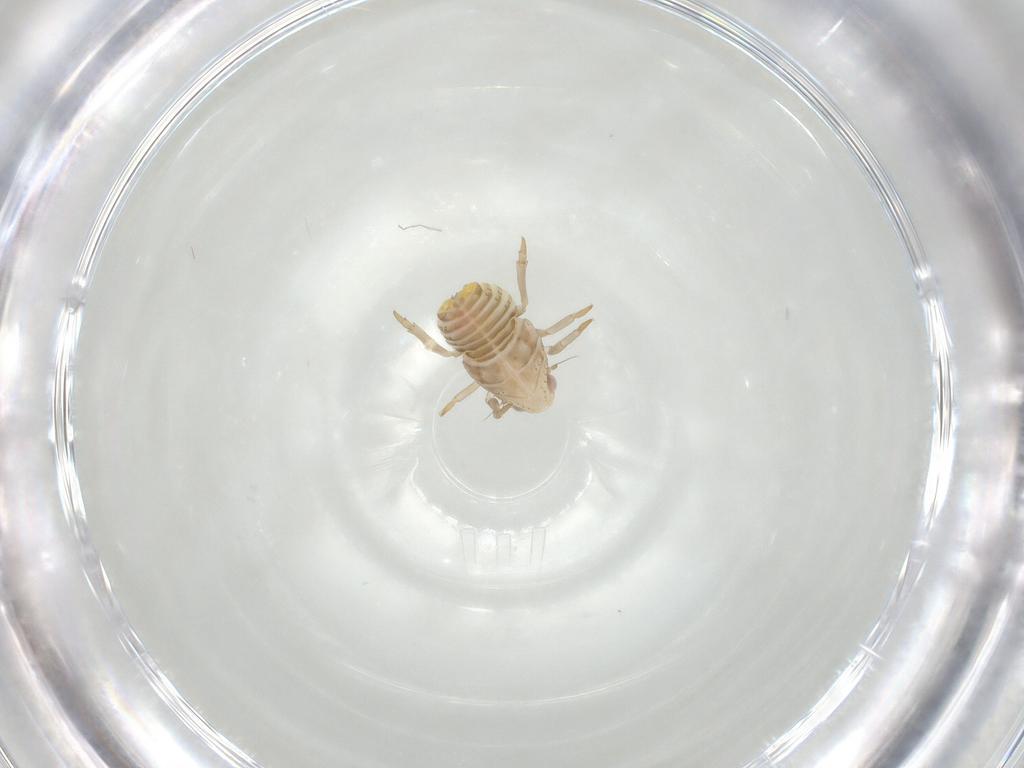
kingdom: Animalia
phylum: Arthropoda
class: Insecta
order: Hemiptera
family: Flatidae
